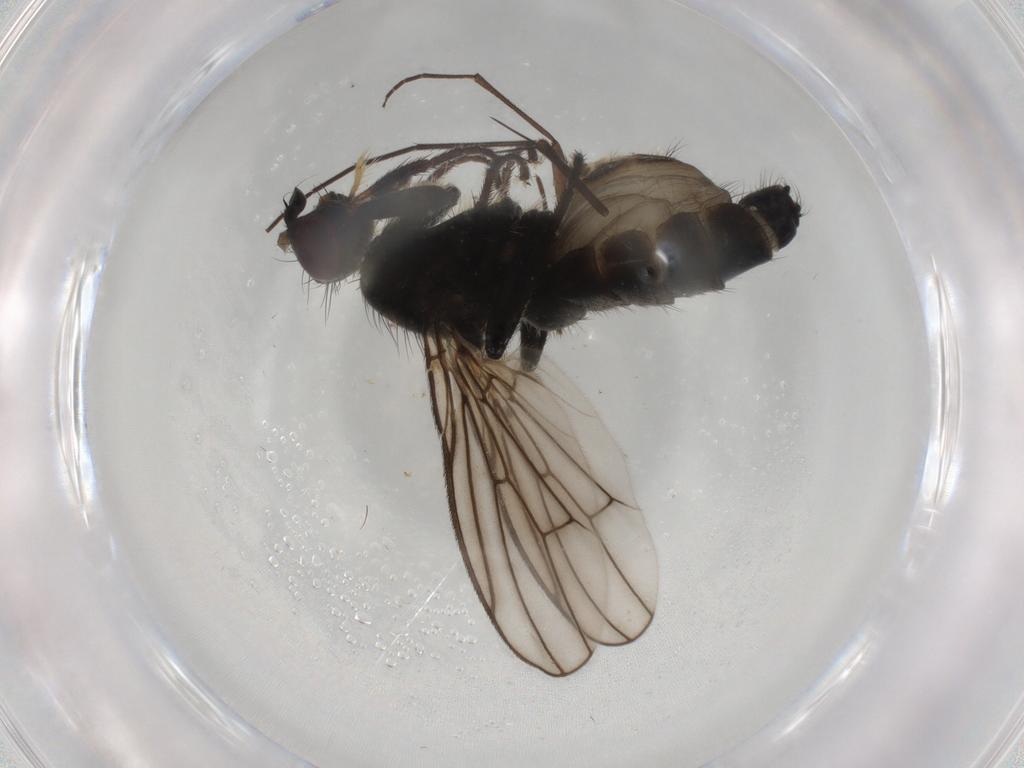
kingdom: Animalia
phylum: Arthropoda
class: Insecta
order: Diptera
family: Scathophagidae
